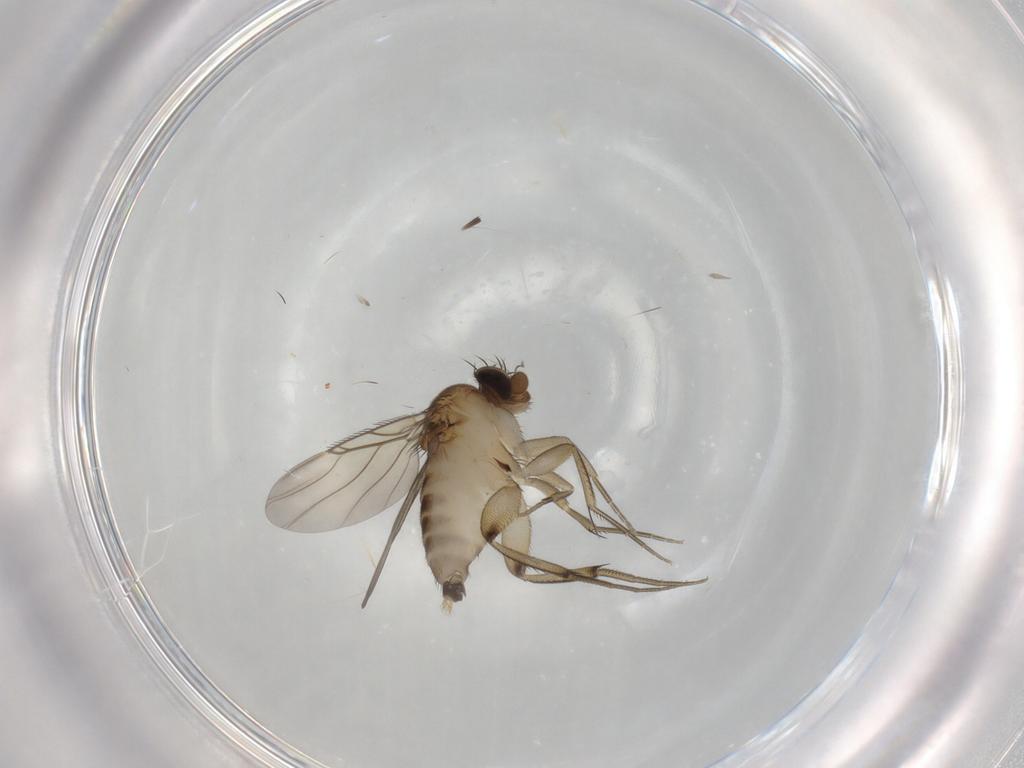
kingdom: Animalia
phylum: Arthropoda
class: Insecta
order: Diptera
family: Phoridae
